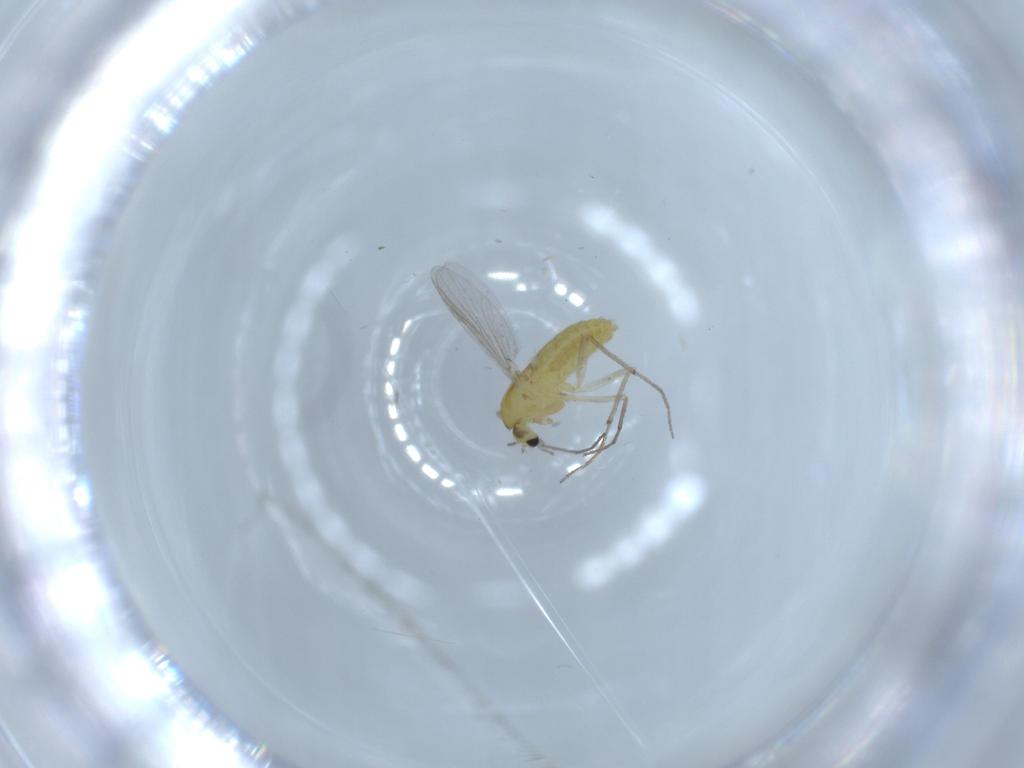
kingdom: Animalia
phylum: Arthropoda
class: Insecta
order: Diptera
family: Chironomidae
